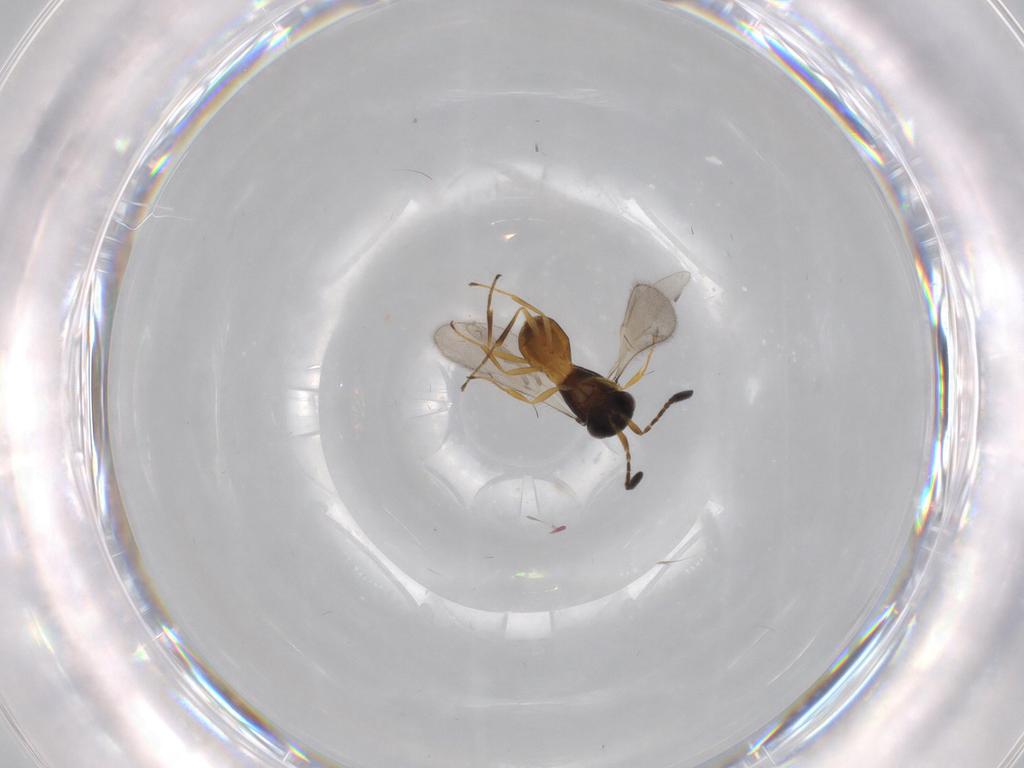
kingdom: Animalia
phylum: Arthropoda
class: Insecta
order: Hymenoptera
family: Scelionidae
